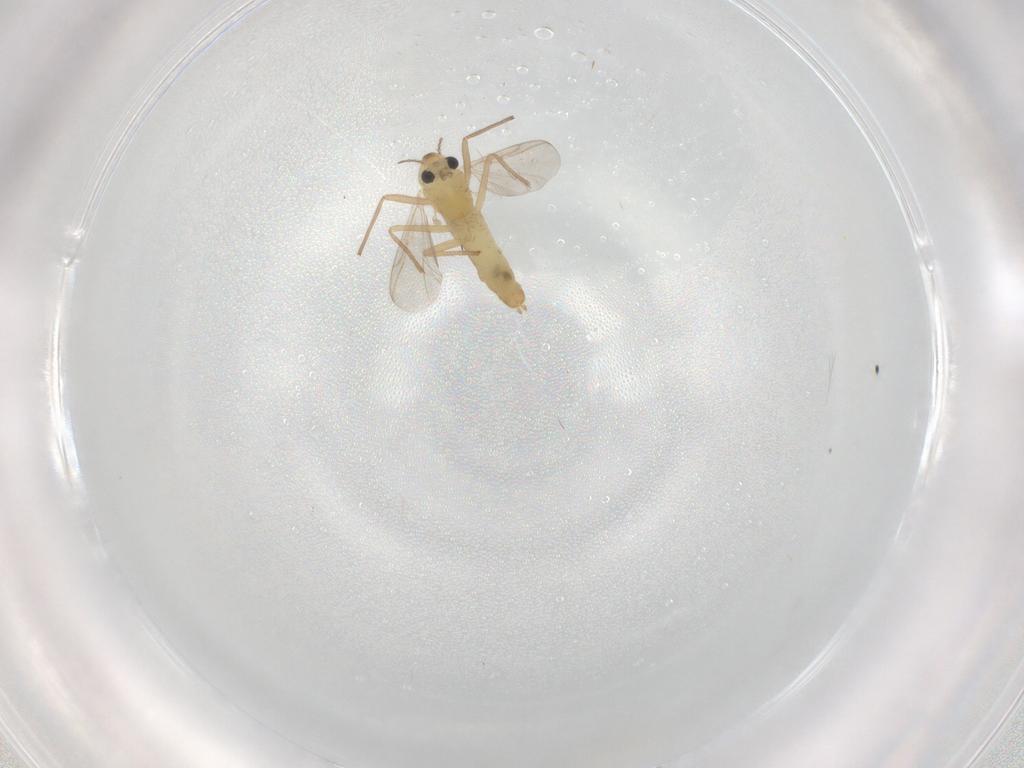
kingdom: Animalia
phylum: Arthropoda
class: Insecta
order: Diptera
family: Chironomidae
